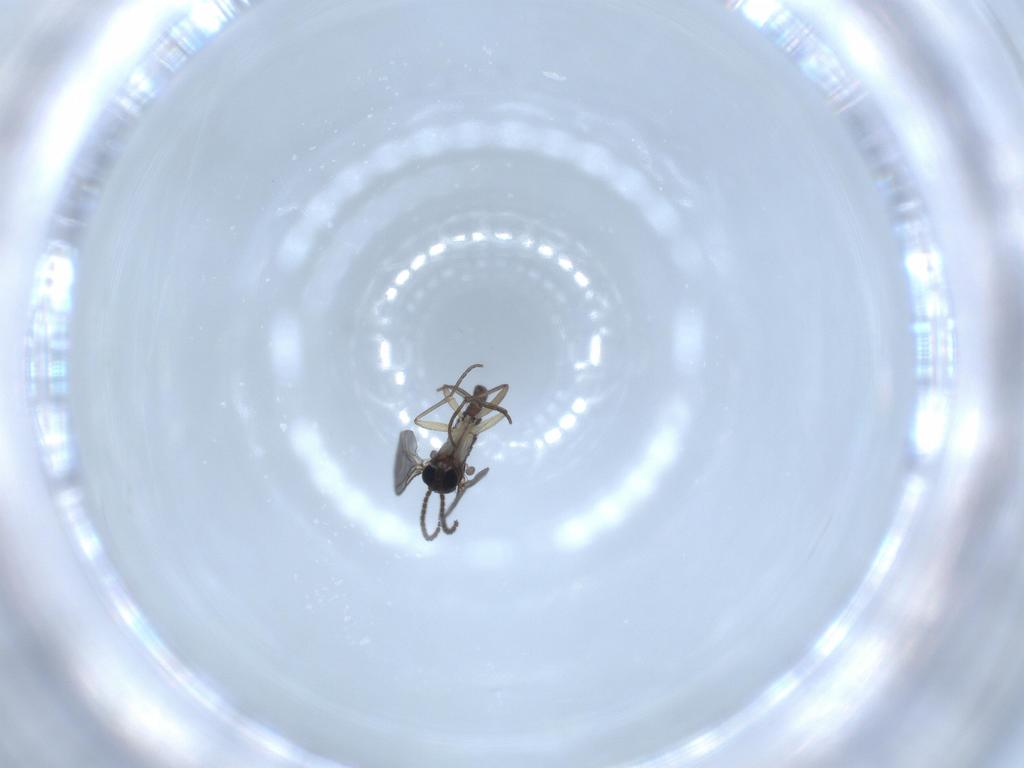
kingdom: Animalia
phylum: Arthropoda
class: Insecta
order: Diptera
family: Sciaridae
